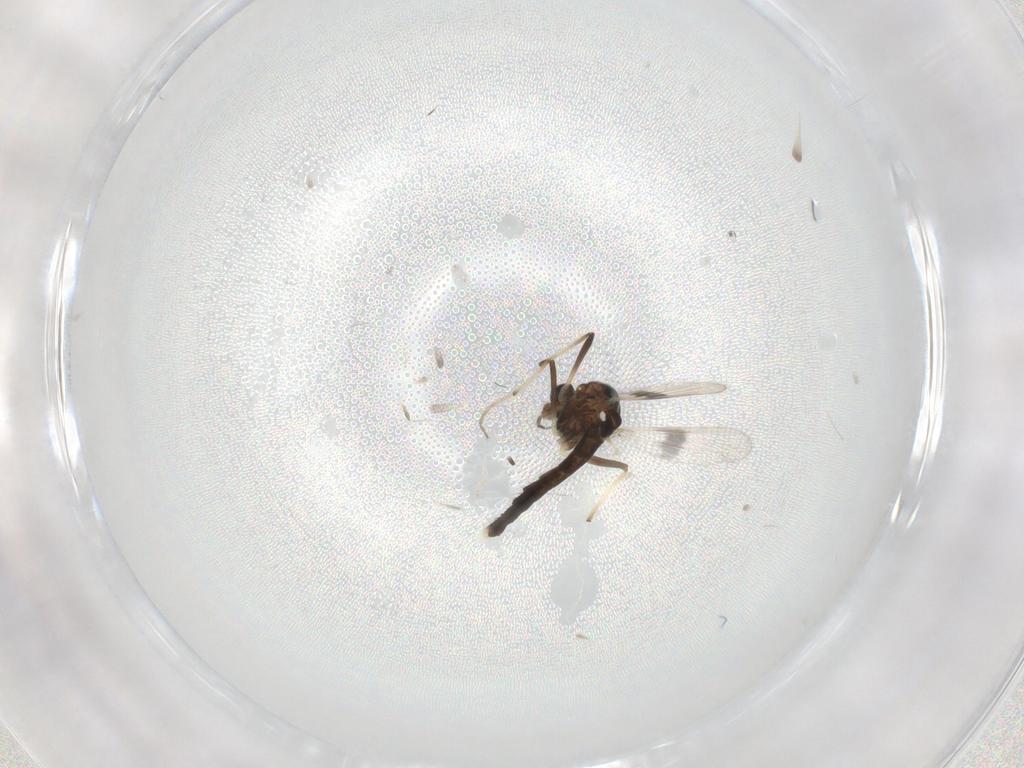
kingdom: Animalia
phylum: Arthropoda
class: Insecta
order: Diptera
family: Chironomidae
